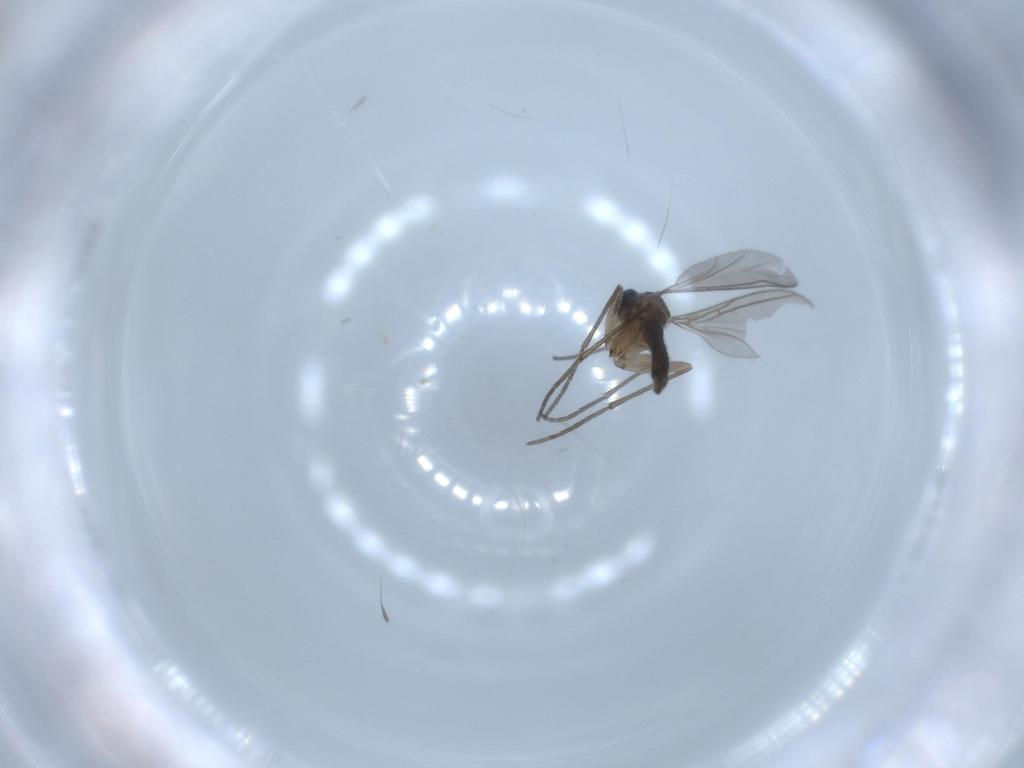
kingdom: Animalia
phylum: Arthropoda
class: Insecta
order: Diptera
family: Sciaridae
